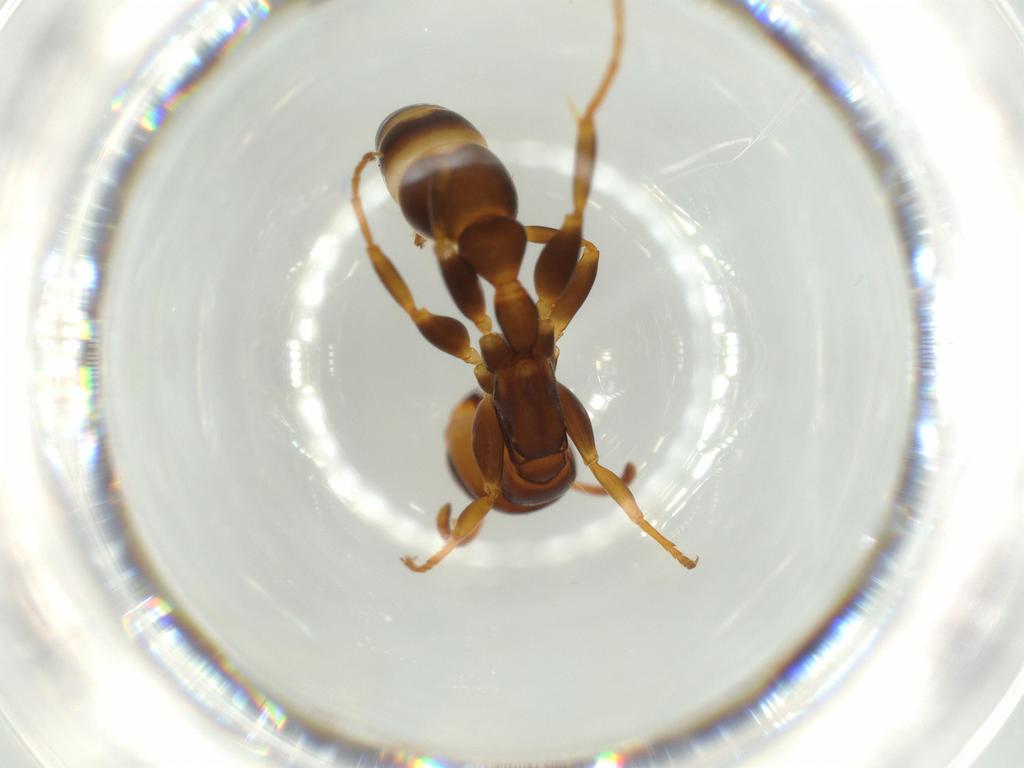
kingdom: Animalia
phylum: Arthropoda
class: Insecta
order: Hymenoptera
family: Formicidae
